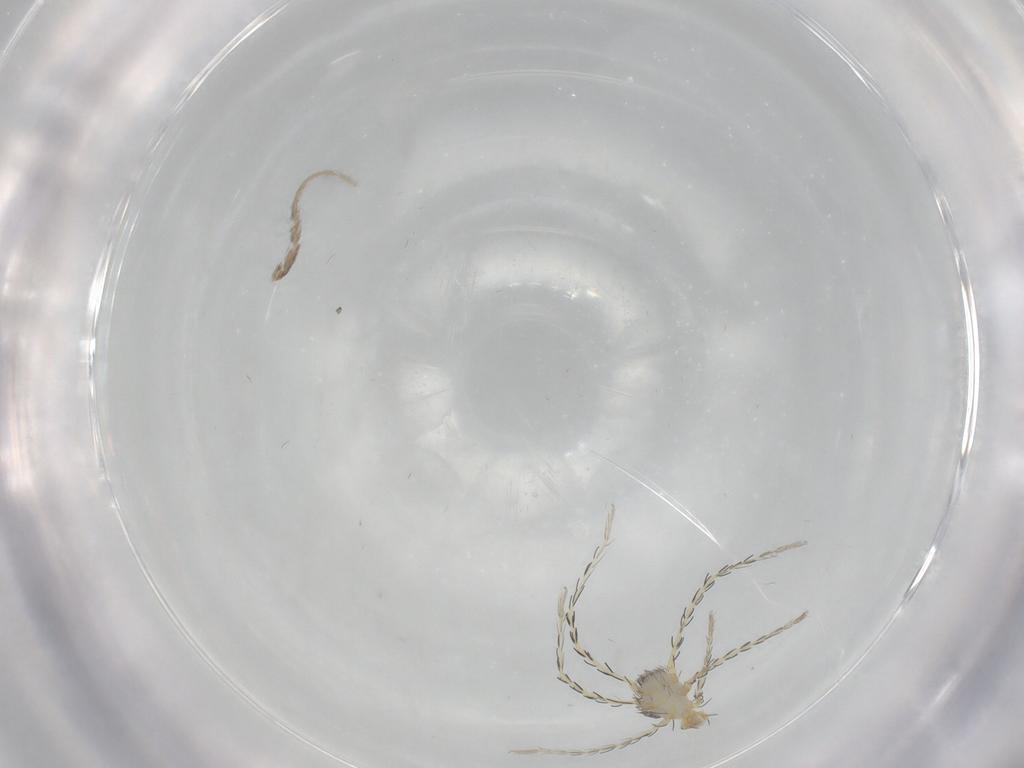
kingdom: Animalia
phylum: Arthropoda
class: Arachnida
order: Trombidiformes
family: Erythraeidae
